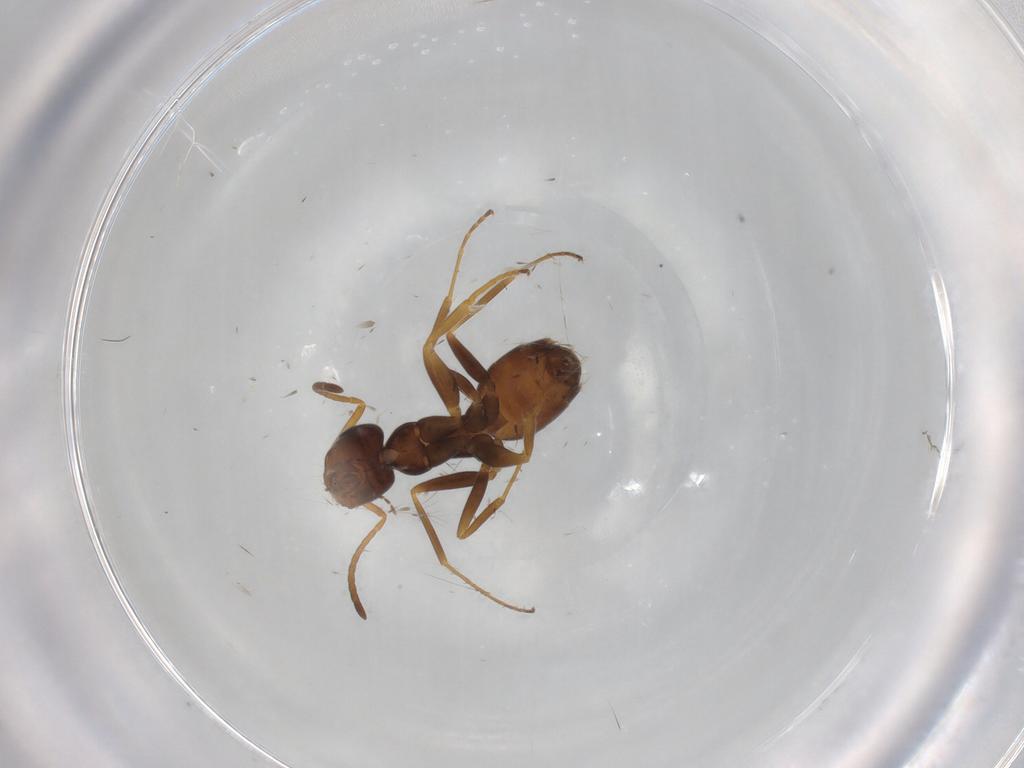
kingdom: Animalia
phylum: Arthropoda
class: Insecta
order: Hymenoptera
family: Formicidae
